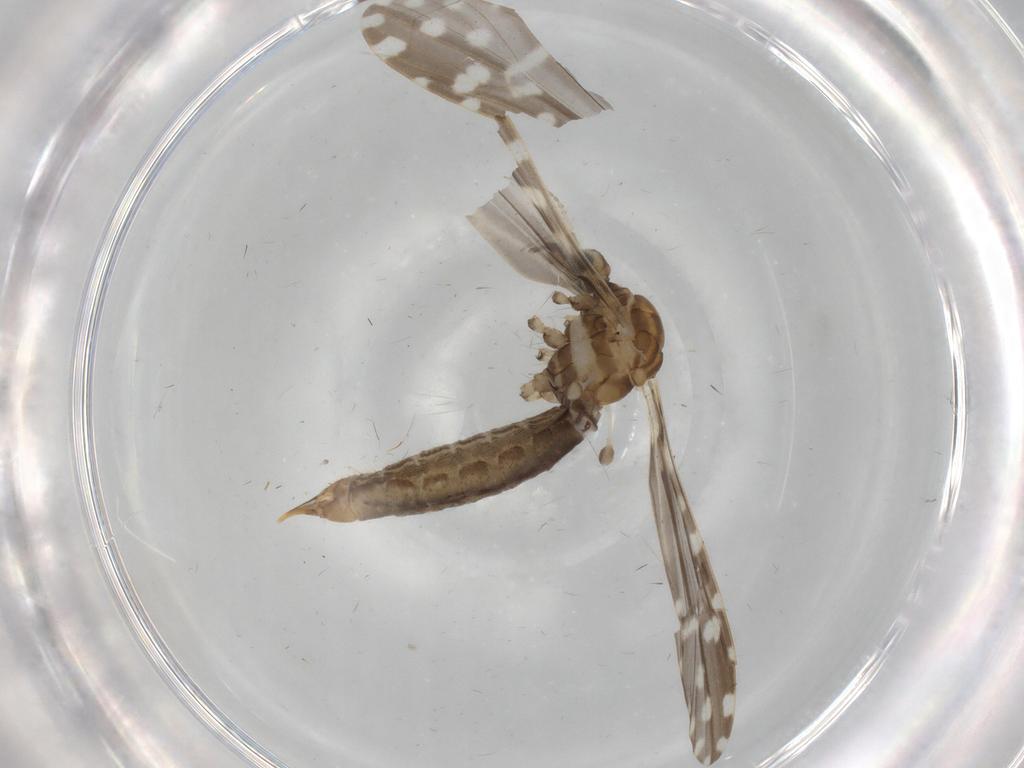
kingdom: Animalia
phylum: Arthropoda
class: Insecta
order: Diptera
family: Limoniidae
